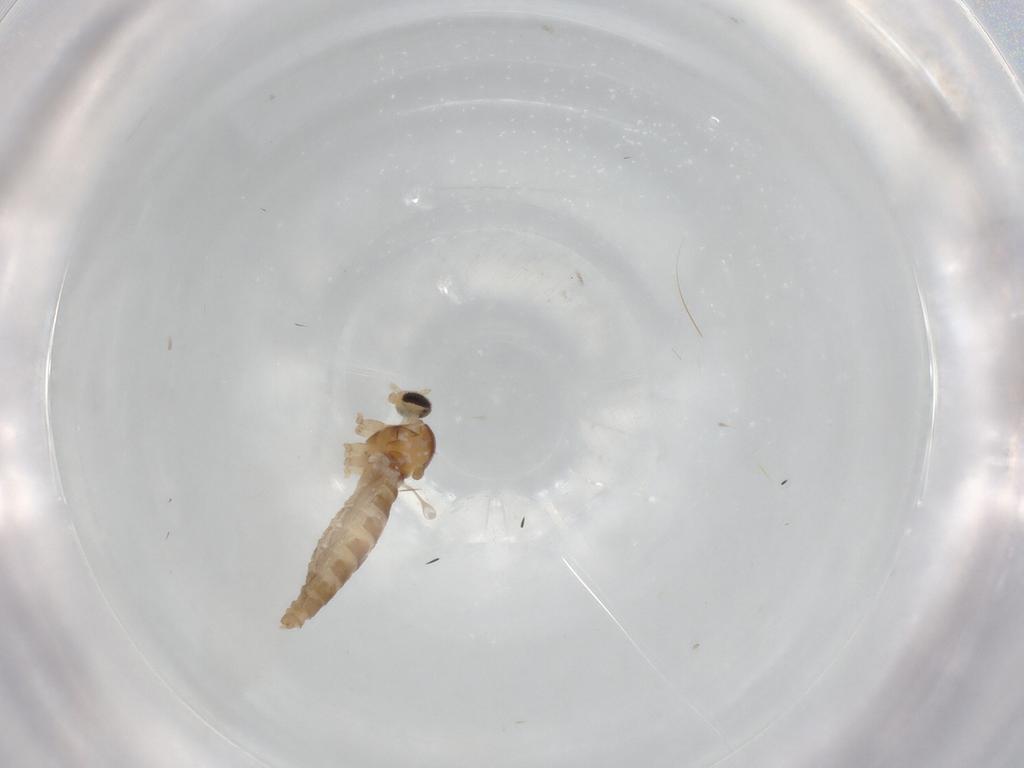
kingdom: Animalia
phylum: Arthropoda
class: Insecta
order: Diptera
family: Cecidomyiidae
